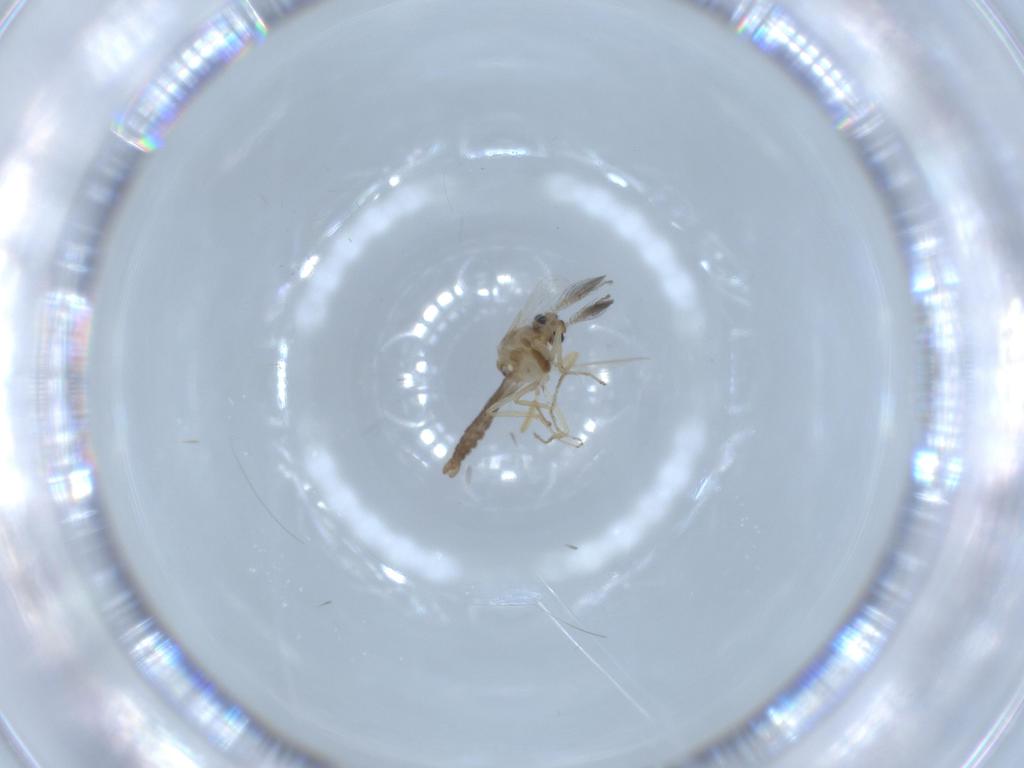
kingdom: Animalia
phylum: Arthropoda
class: Insecta
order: Diptera
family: Ceratopogonidae
